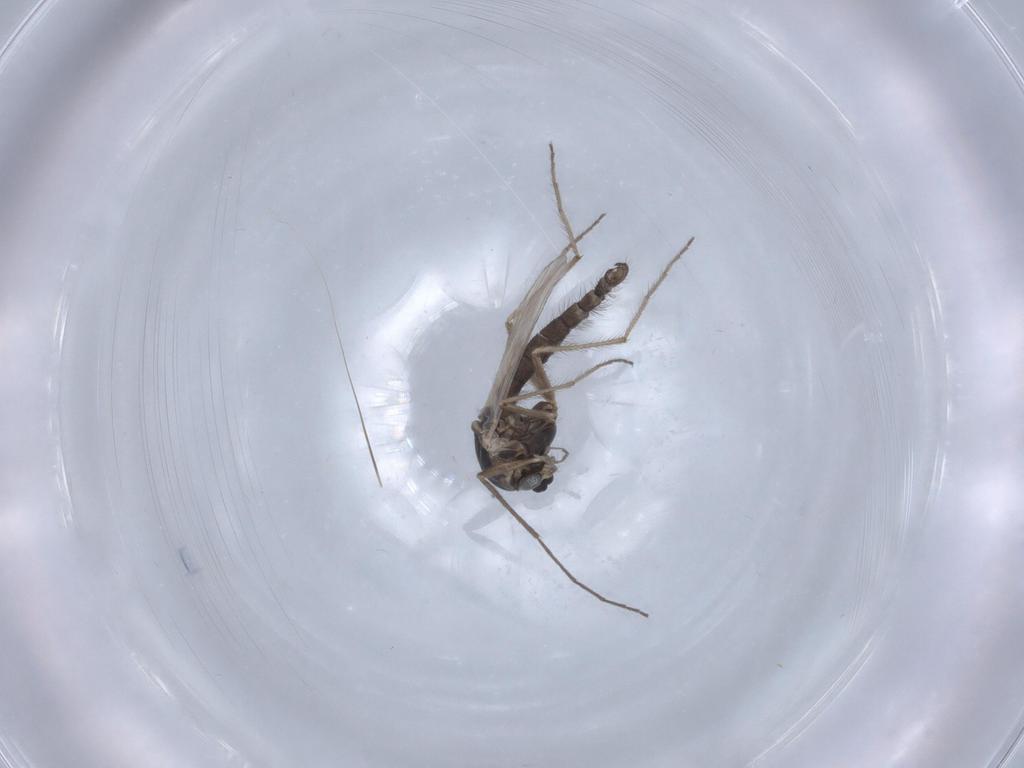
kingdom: Animalia
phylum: Arthropoda
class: Insecta
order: Diptera
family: Chironomidae
